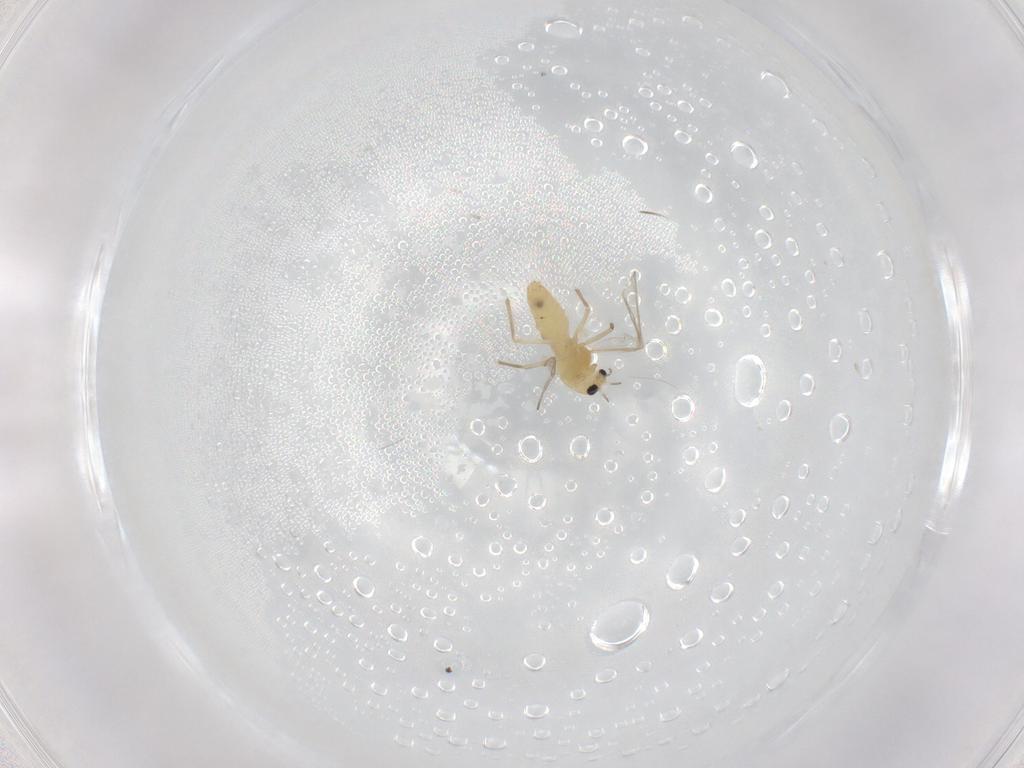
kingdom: Animalia
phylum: Arthropoda
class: Insecta
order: Diptera
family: Chironomidae
